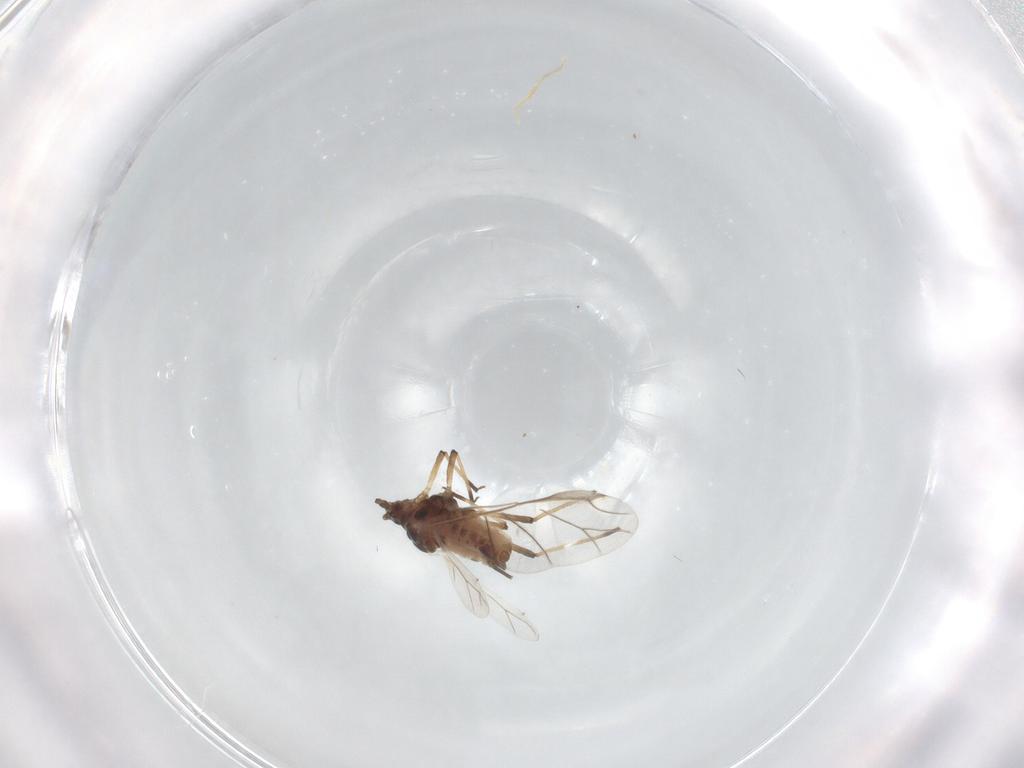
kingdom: Animalia
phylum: Arthropoda
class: Insecta
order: Hemiptera
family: Aphididae
